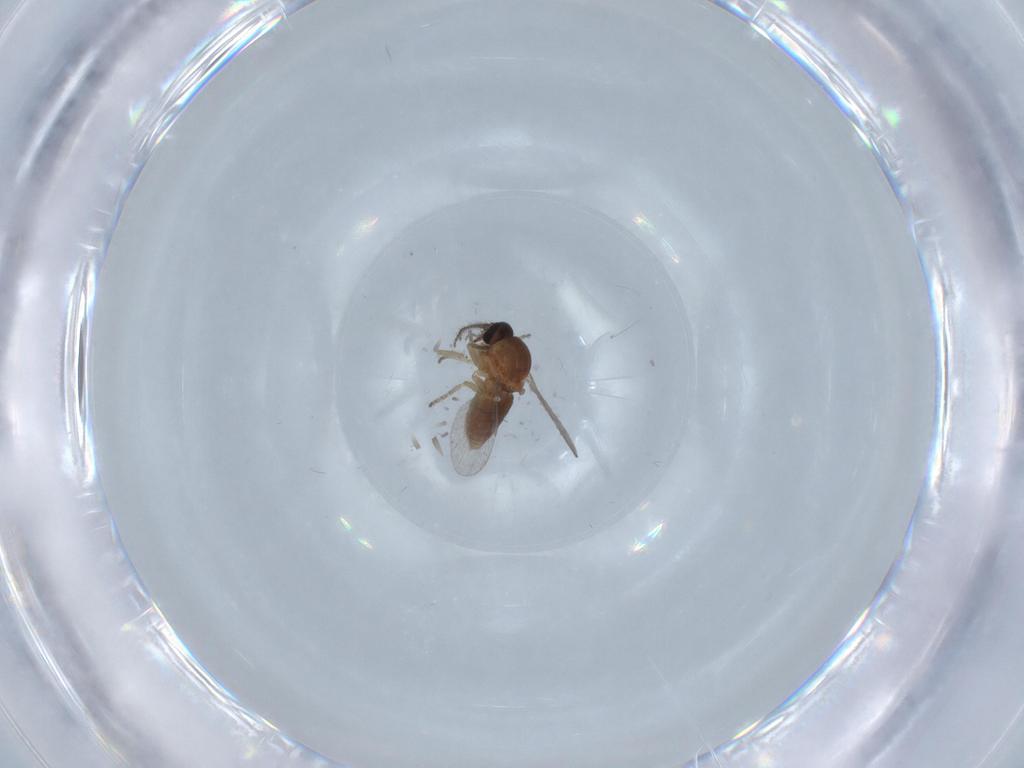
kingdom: Animalia
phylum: Arthropoda
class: Insecta
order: Diptera
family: Ceratopogonidae
